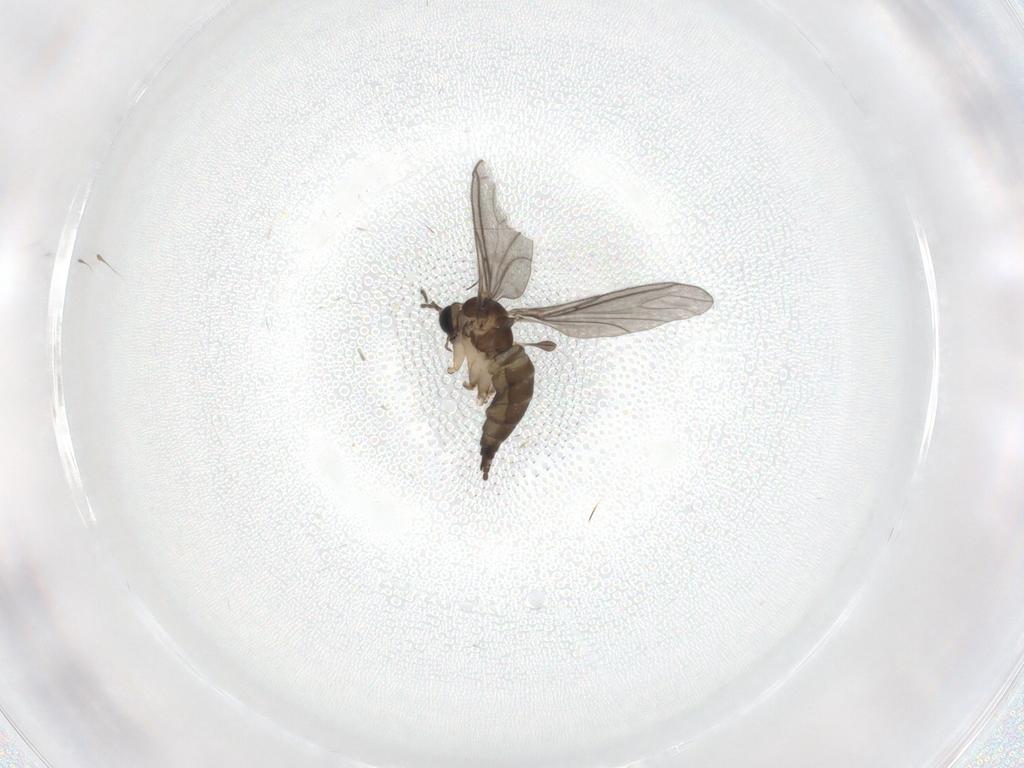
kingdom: Animalia
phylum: Arthropoda
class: Insecta
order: Diptera
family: Sciaridae
